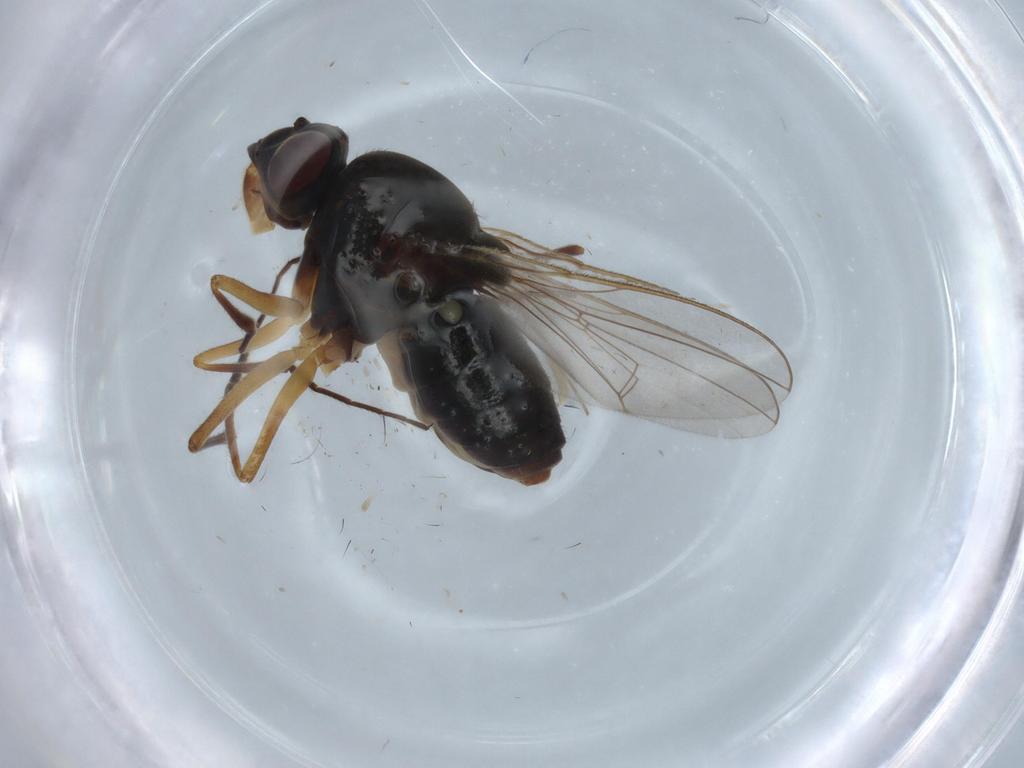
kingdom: Animalia
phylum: Arthropoda
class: Insecta
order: Diptera
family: Ephydridae
